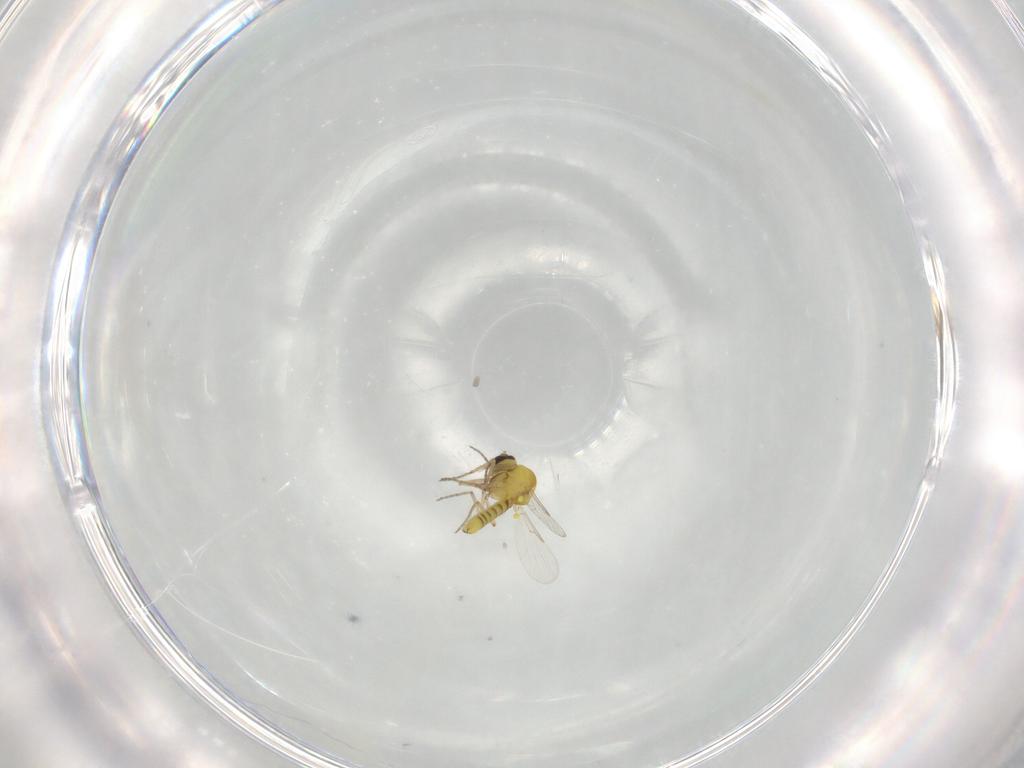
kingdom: Animalia
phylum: Arthropoda
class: Insecta
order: Diptera
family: Ceratopogonidae
